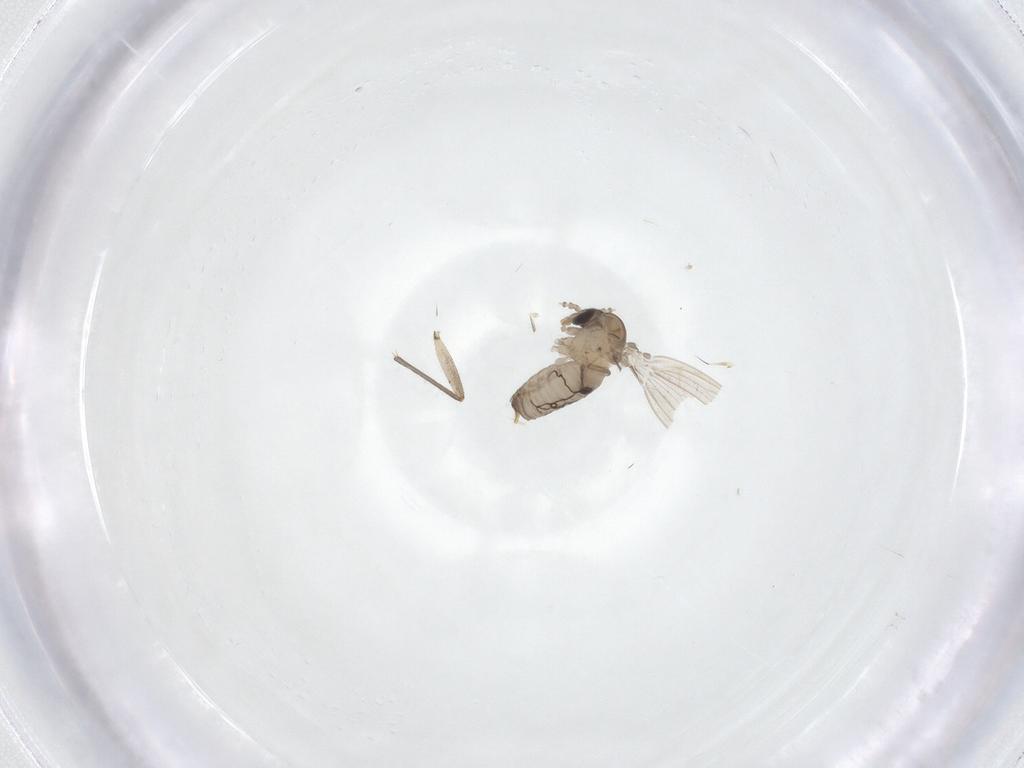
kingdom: Animalia
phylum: Arthropoda
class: Insecta
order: Diptera
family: Psychodidae
